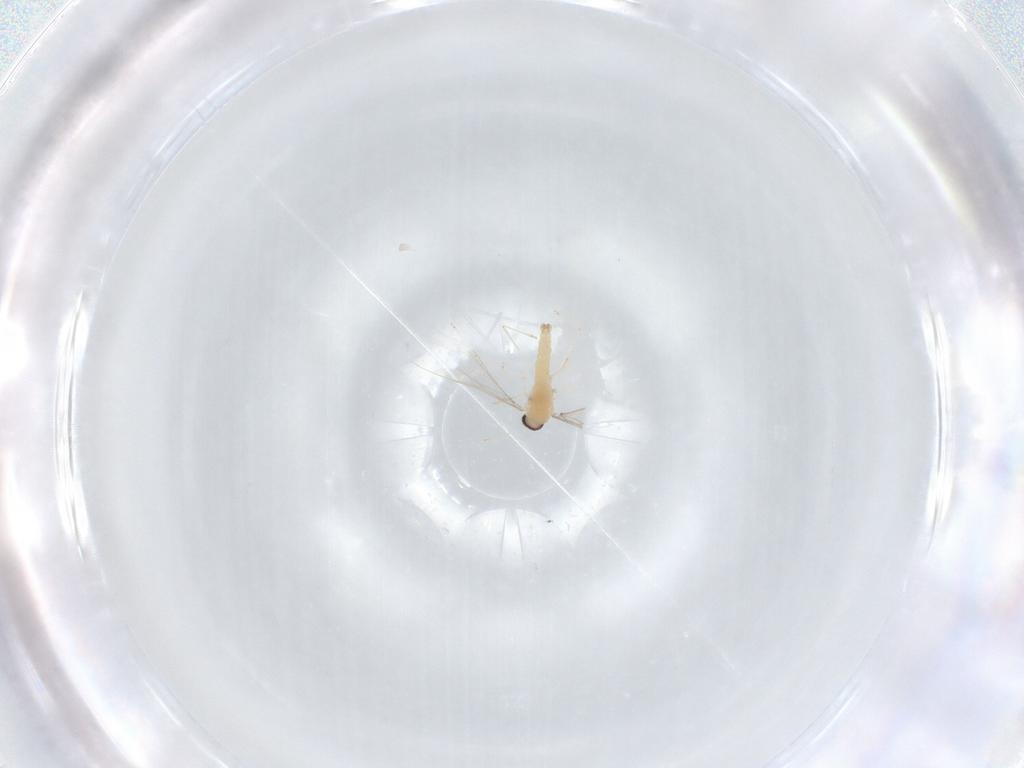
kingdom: Animalia
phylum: Arthropoda
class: Insecta
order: Diptera
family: Cecidomyiidae
